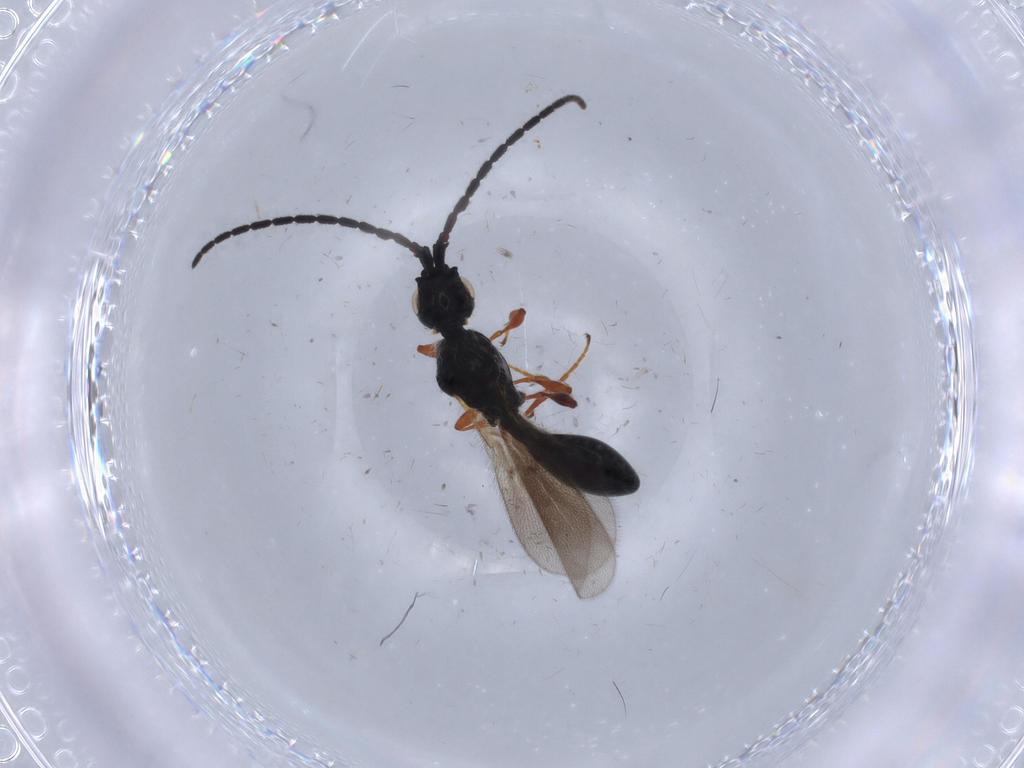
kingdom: Animalia
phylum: Arthropoda
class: Insecta
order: Hymenoptera
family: Diapriidae
